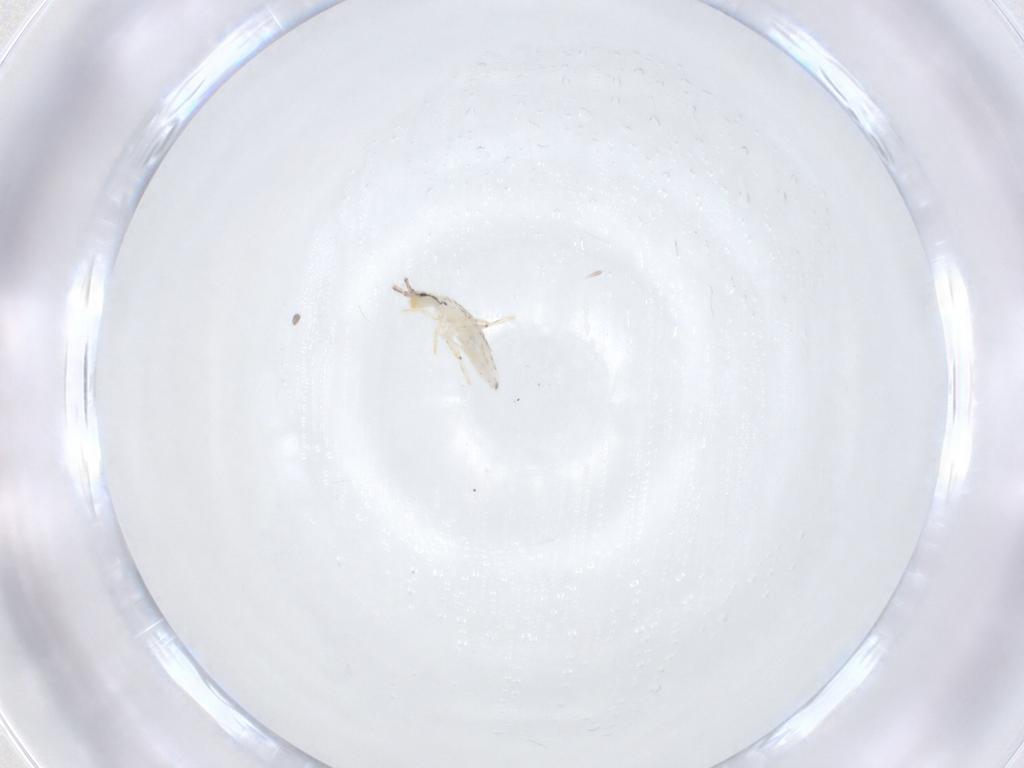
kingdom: Animalia
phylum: Arthropoda
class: Collembola
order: Entomobryomorpha
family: Entomobryidae
